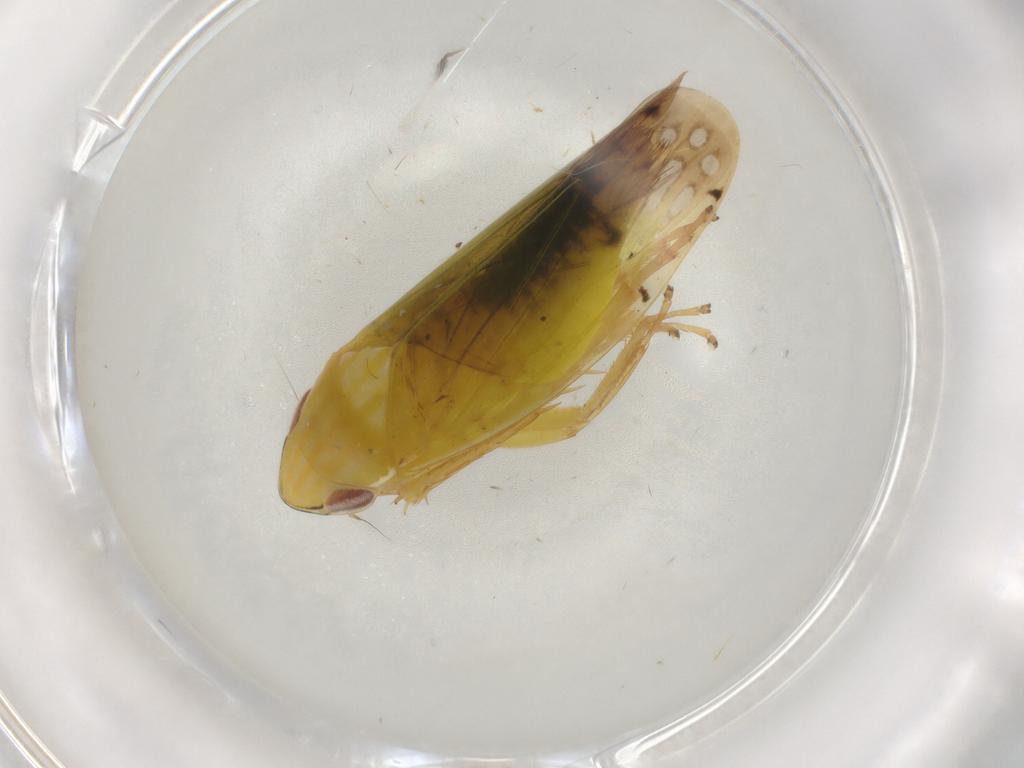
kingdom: Animalia
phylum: Arthropoda
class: Insecta
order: Hemiptera
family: Cicadellidae
